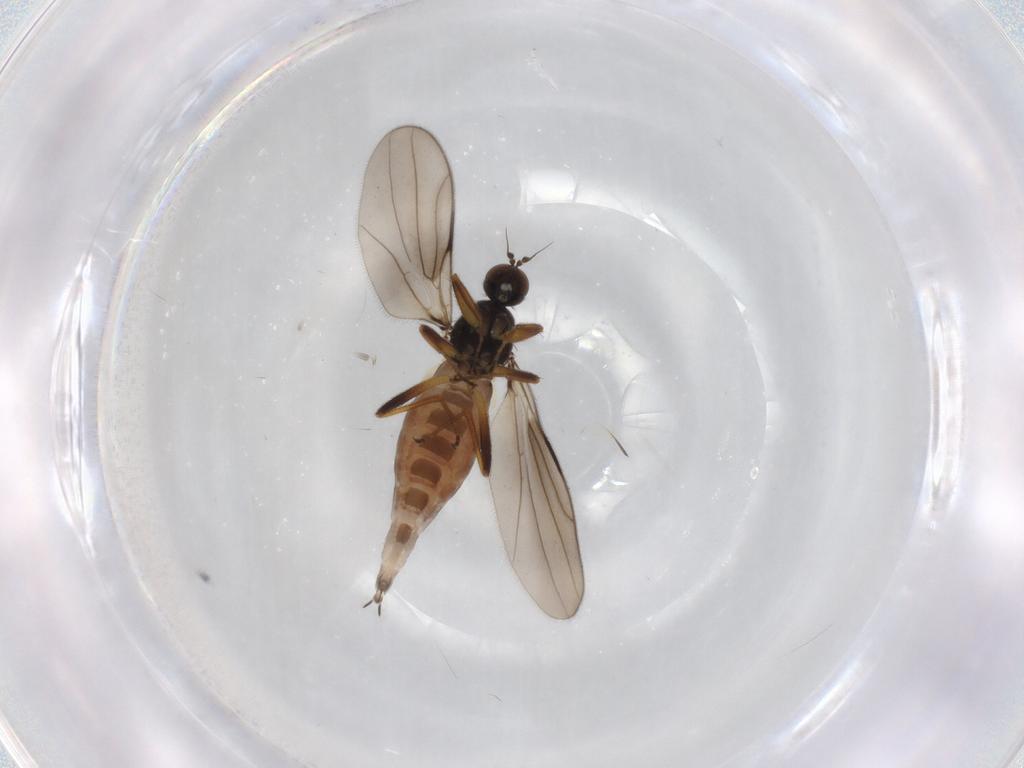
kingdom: Animalia
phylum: Arthropoda
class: Insecta
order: Diptera
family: Hybotidae
